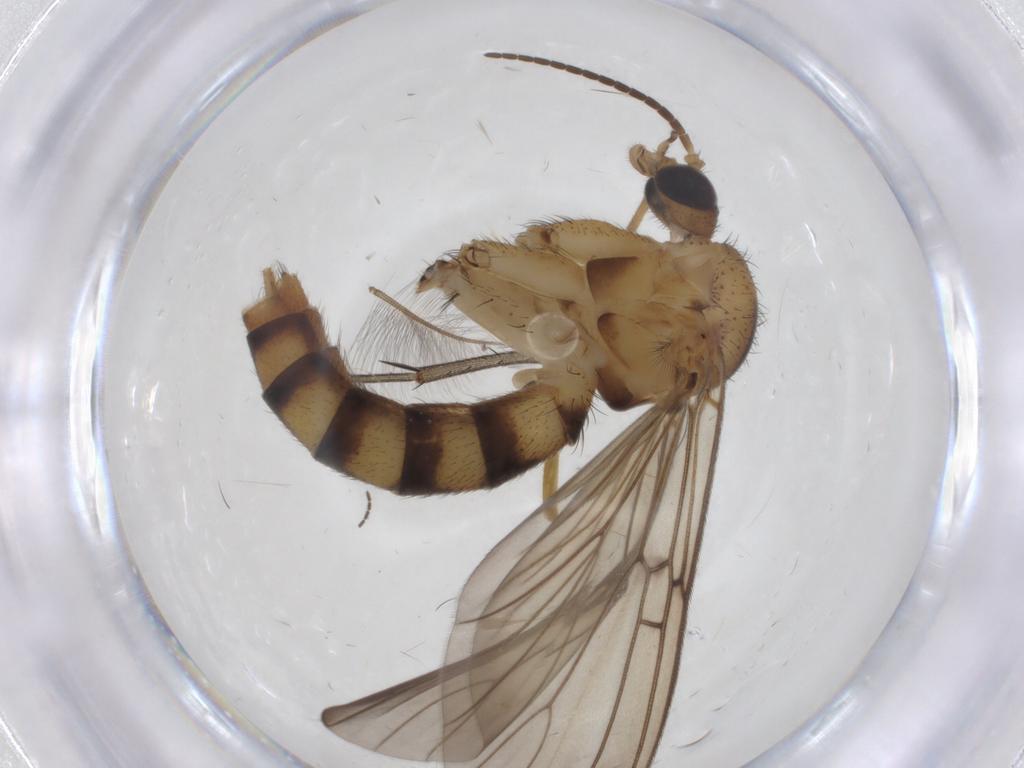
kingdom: Animalia
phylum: Arthropoda
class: Insecta
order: Diptera
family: Mycetophilidae
